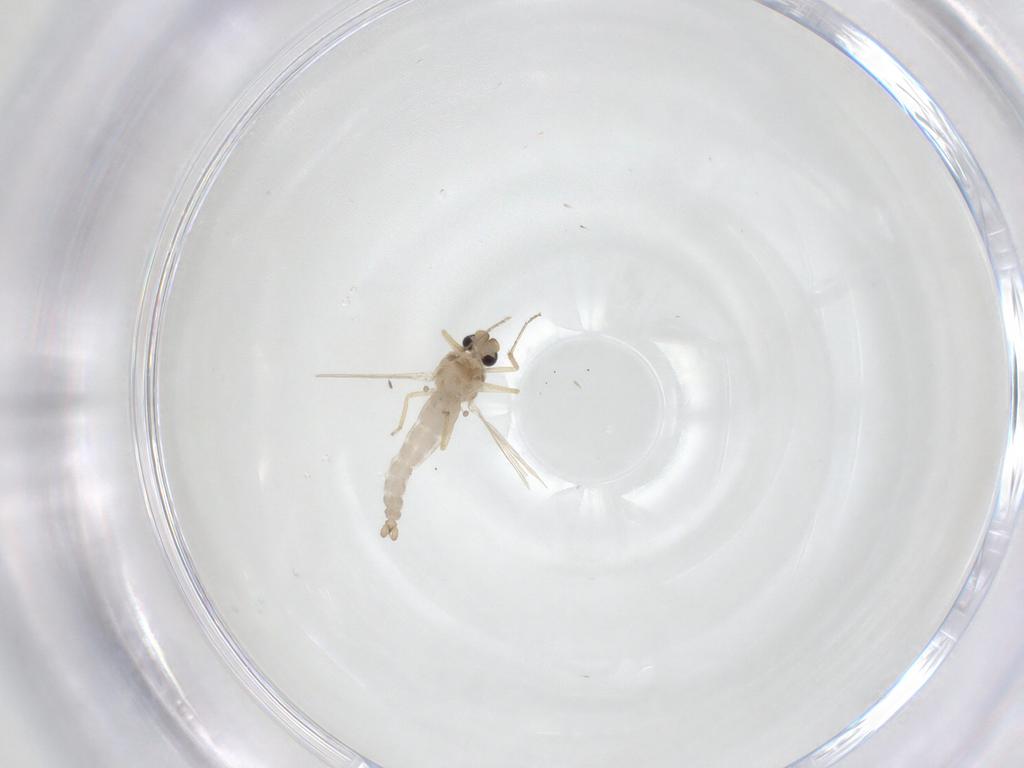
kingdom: Animalia
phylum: Arthropoda
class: Insecta
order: Diptera
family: Ceratopogonidae
